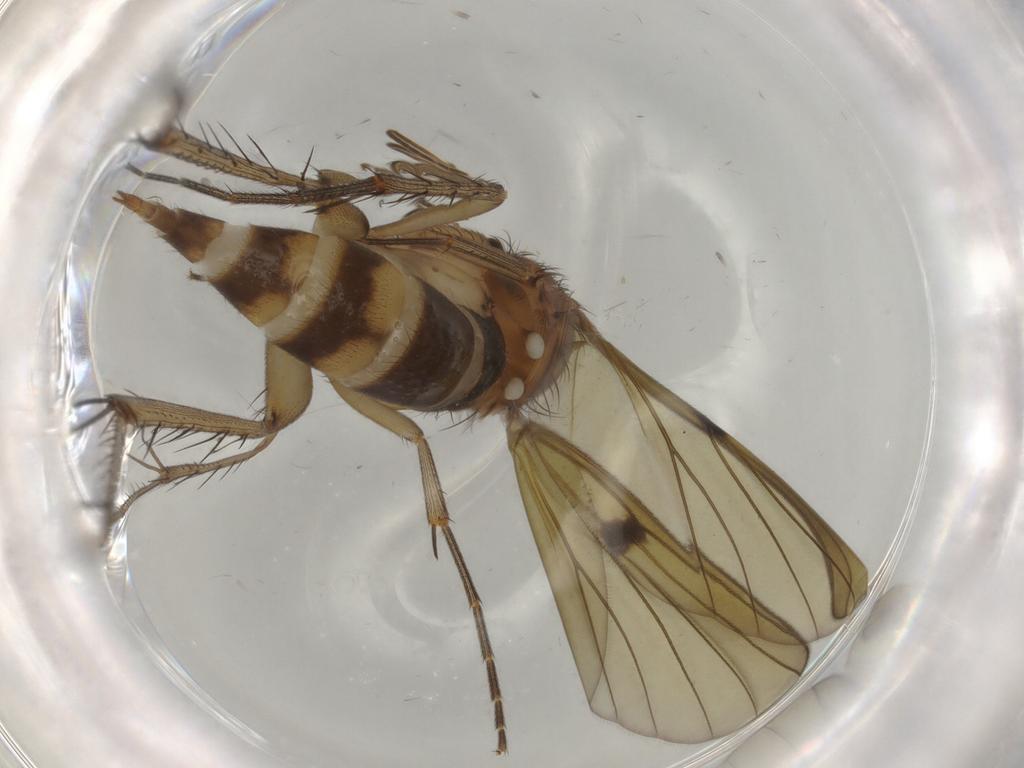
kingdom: Animalia
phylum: Arthropoda
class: Insecta
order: Diptera
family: Mycetophilidae
